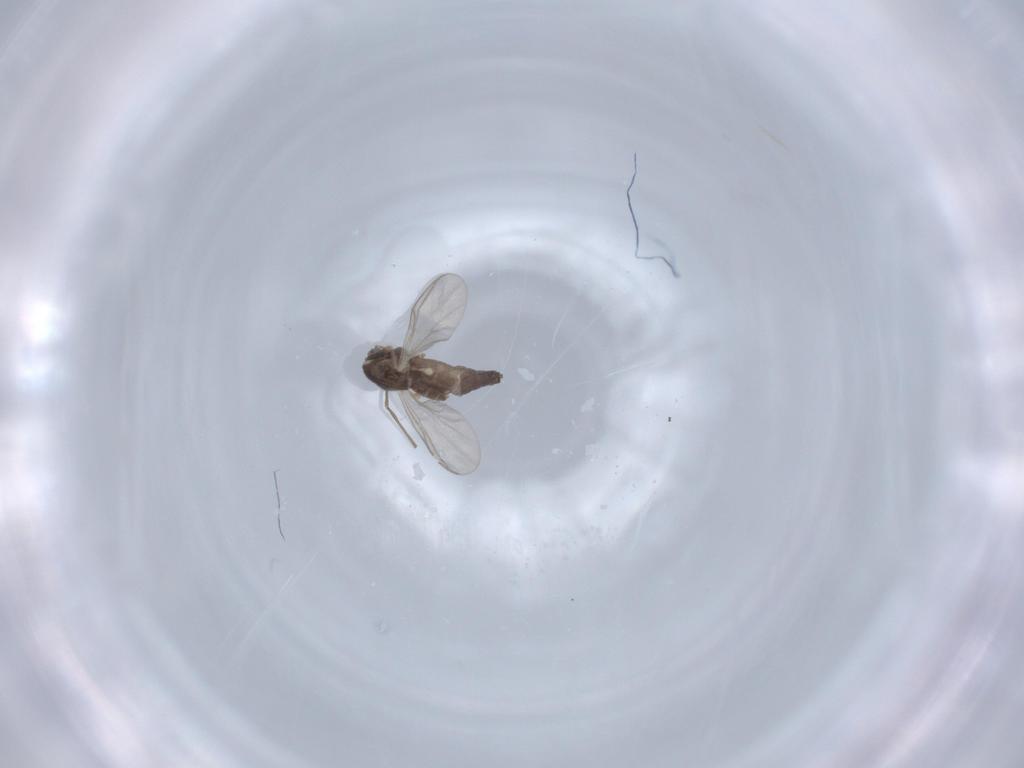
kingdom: Animalia
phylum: Arthropoda
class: Insecta
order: Diptera
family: Chironomidae
